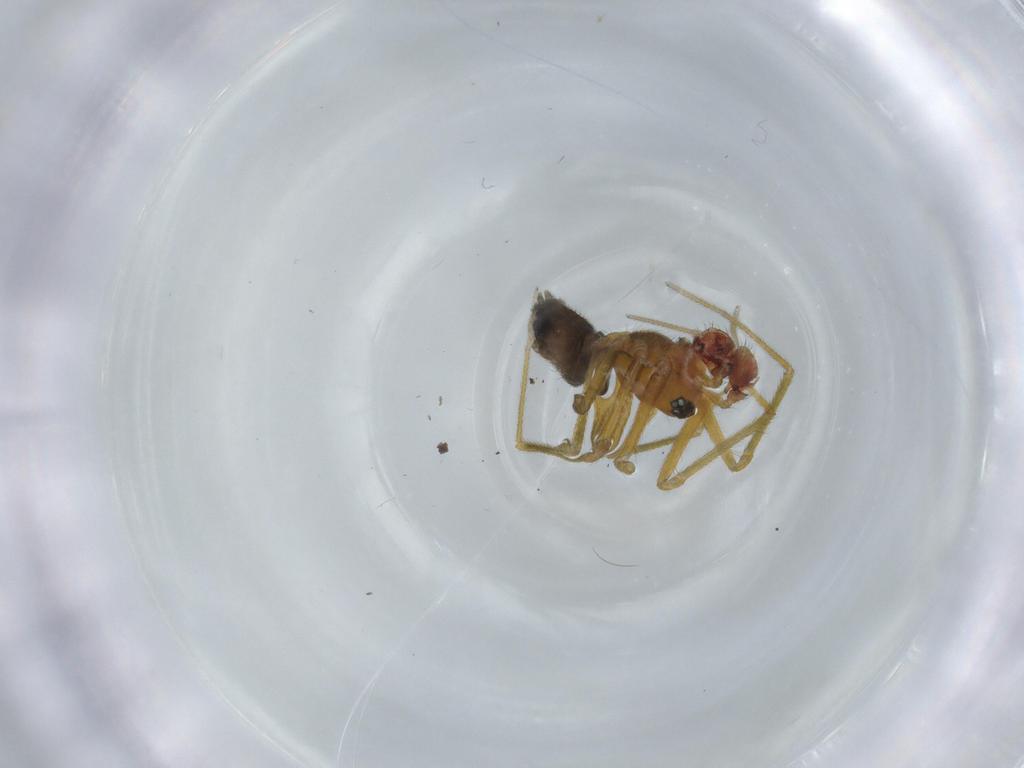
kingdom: Animalia
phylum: Arthropoda
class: Arachnida
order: Araneae
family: Linyphiidae
